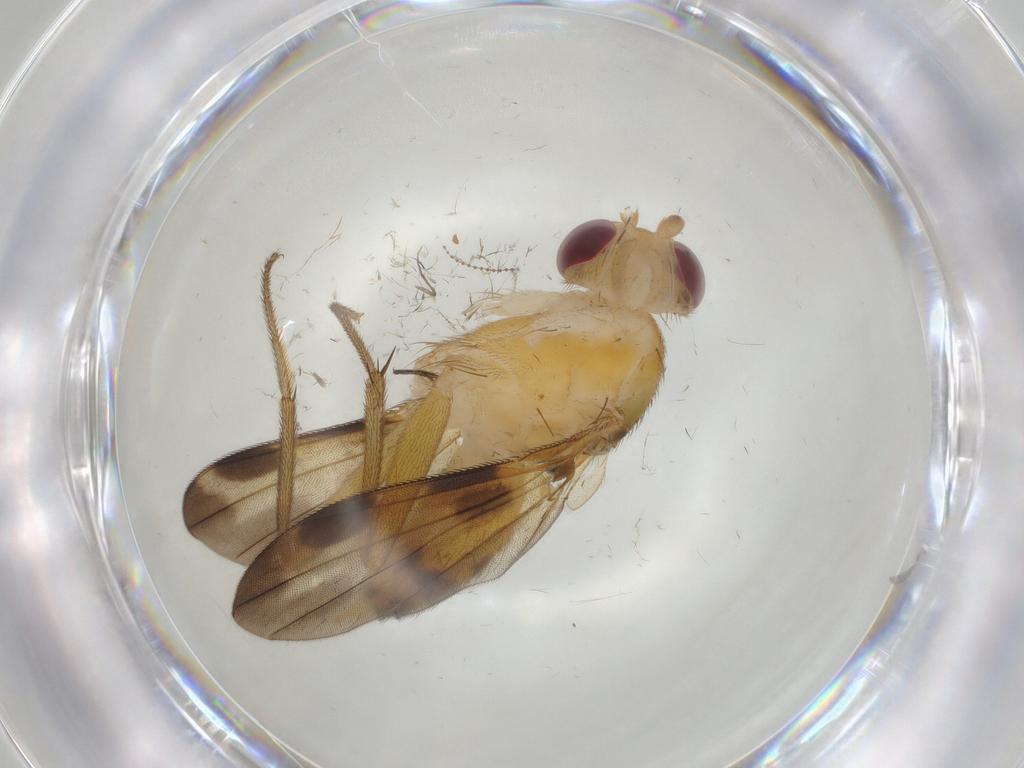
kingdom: Animalia
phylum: Arthropoda
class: Insecta
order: Diptera
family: Clusiidae
